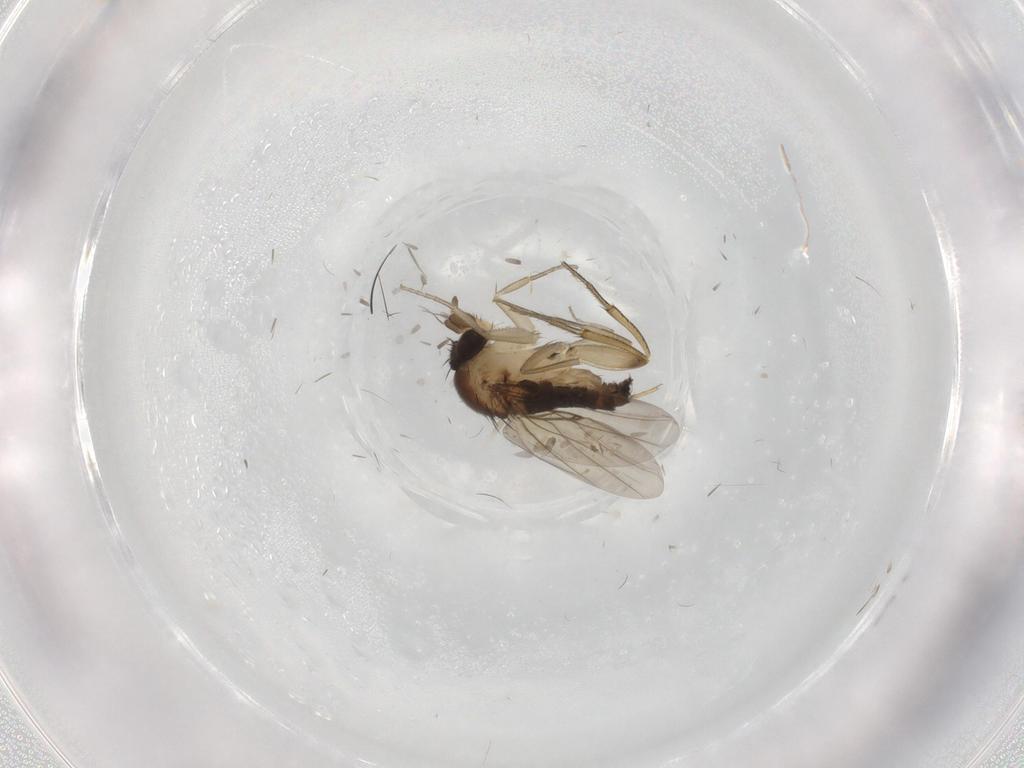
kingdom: Animalia
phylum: Arthropoda
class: Insecta
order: Diptera
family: Phoridae
